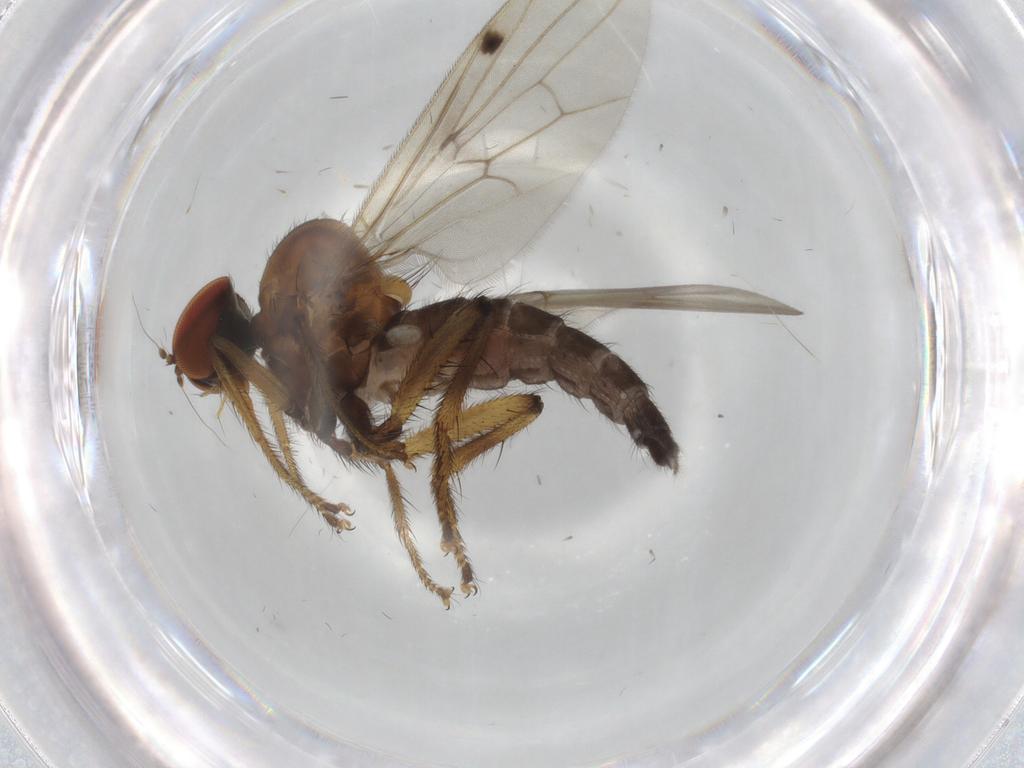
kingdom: Animalia
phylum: Arthropoda
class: Insecta
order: Diptera
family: Hybotidae
